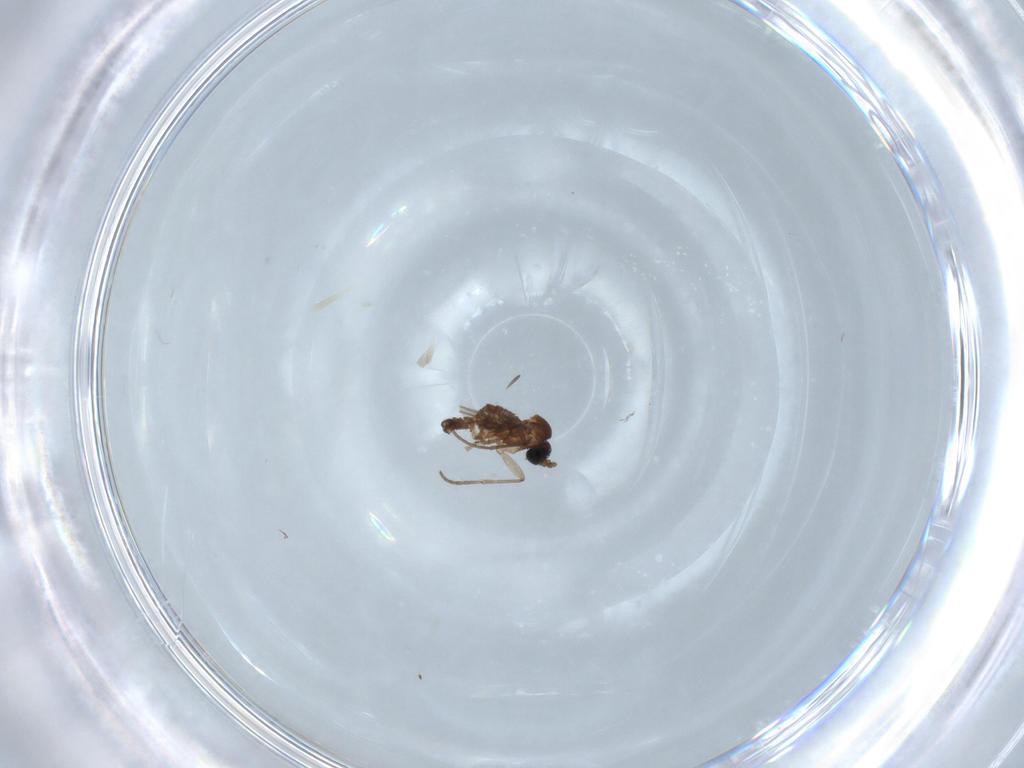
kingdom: Animalia
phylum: Arthropoda
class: Insecta
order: Diptera
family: Sciaridae
